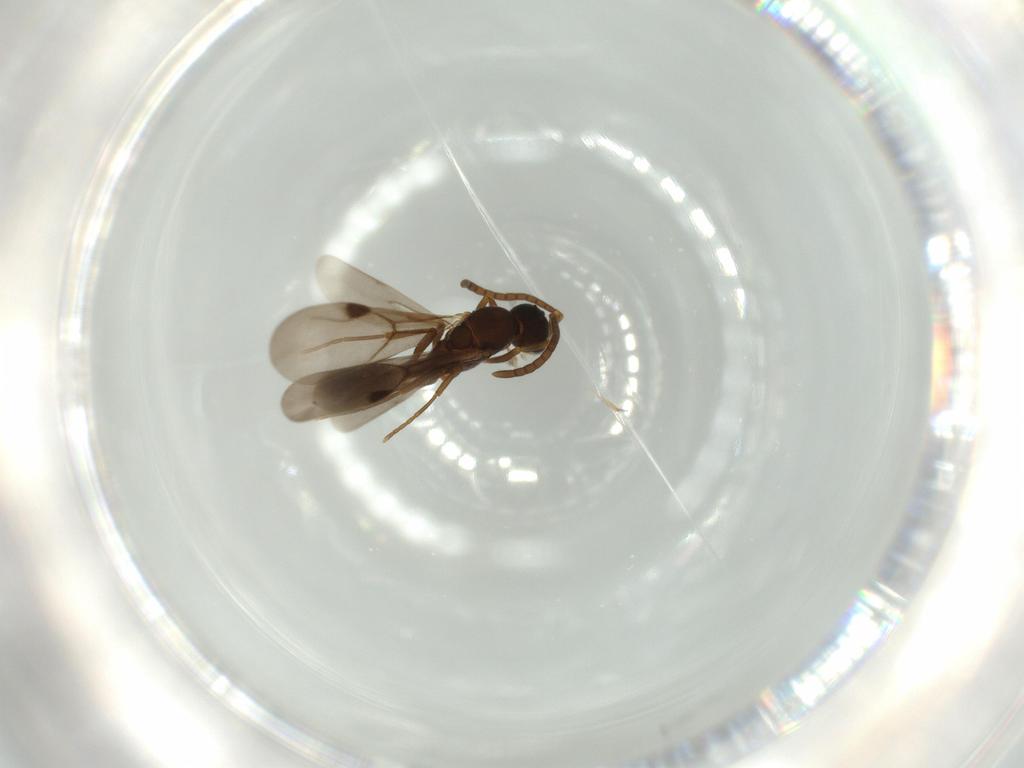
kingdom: Animalia
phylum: Arthropoda
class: Insecta
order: Hymenoptera
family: Formicidae
